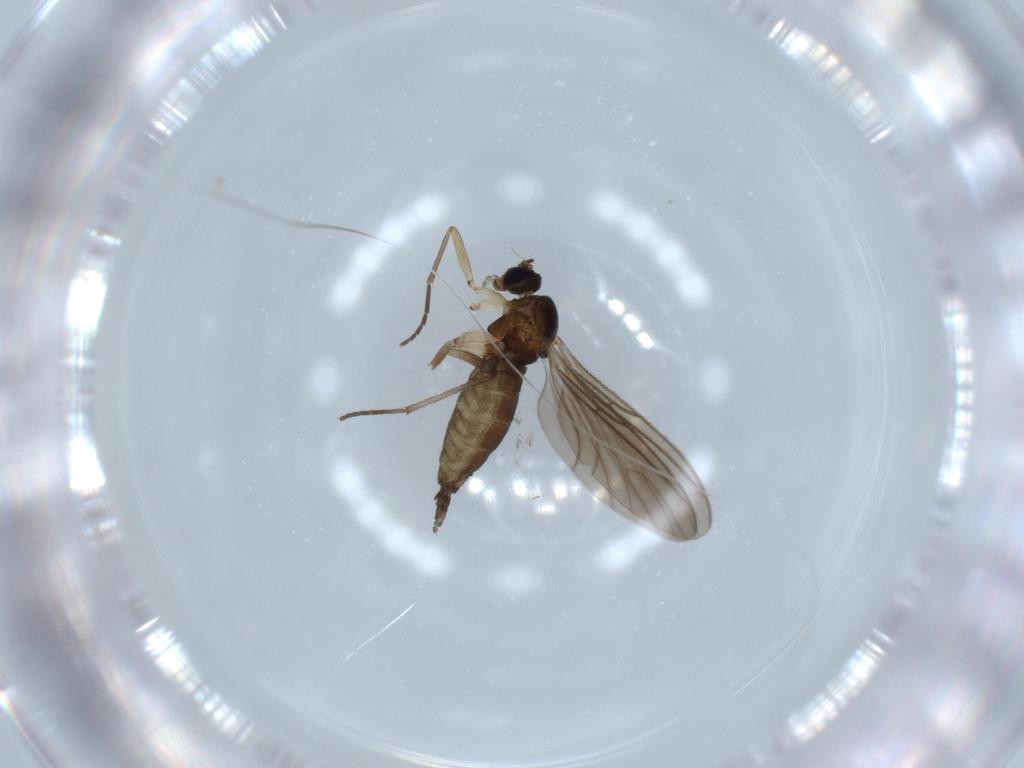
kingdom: Animalia
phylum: Arthropoda
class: Insecta
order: Diptera
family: Sciaridae
